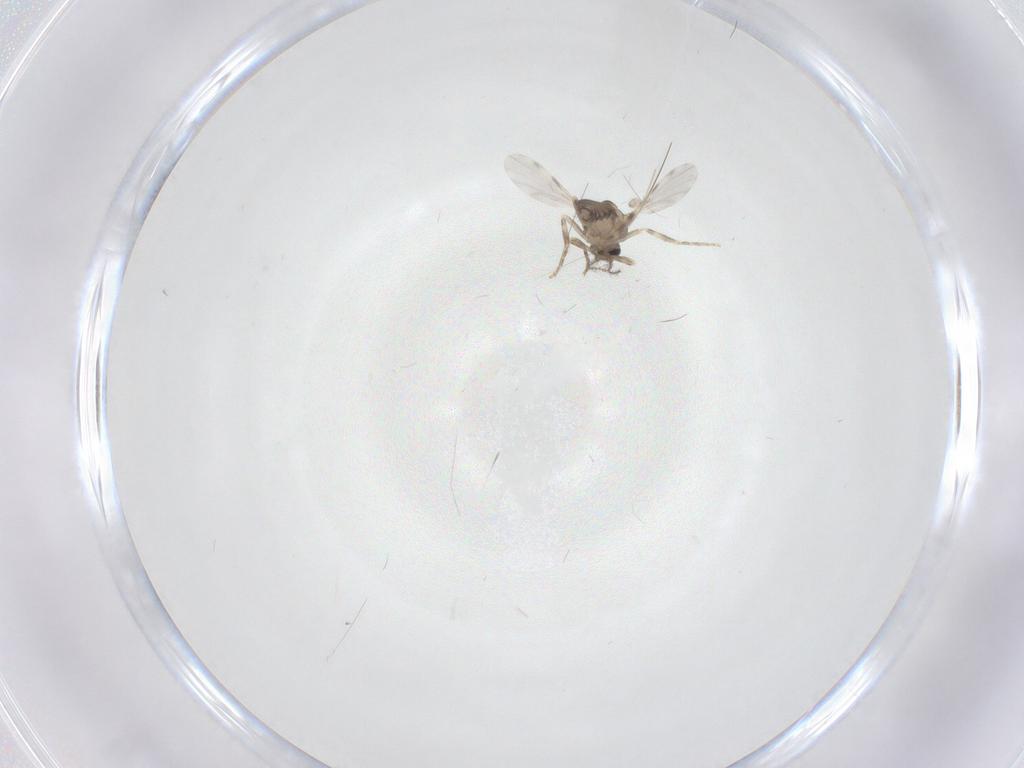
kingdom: Animalia
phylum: Arthropoda
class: Insecta
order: Diptera
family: Ceratopogonidae
